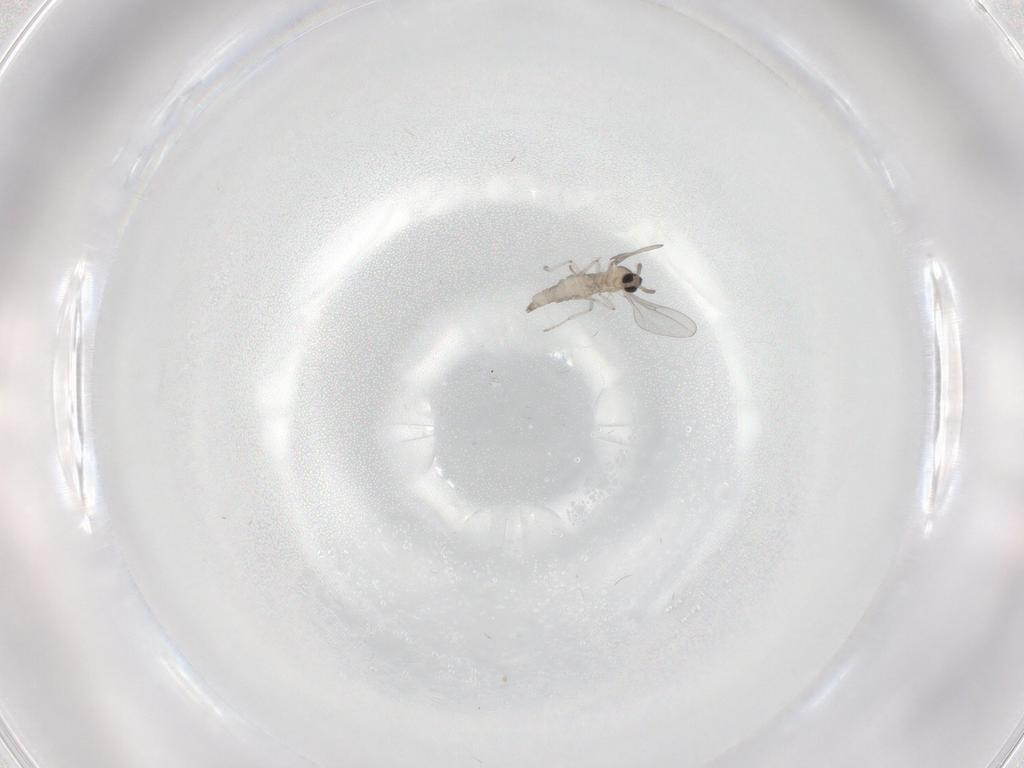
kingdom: Animalia
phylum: Arthropoda
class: Insecta
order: Diptera
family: Cecidomyiidae
